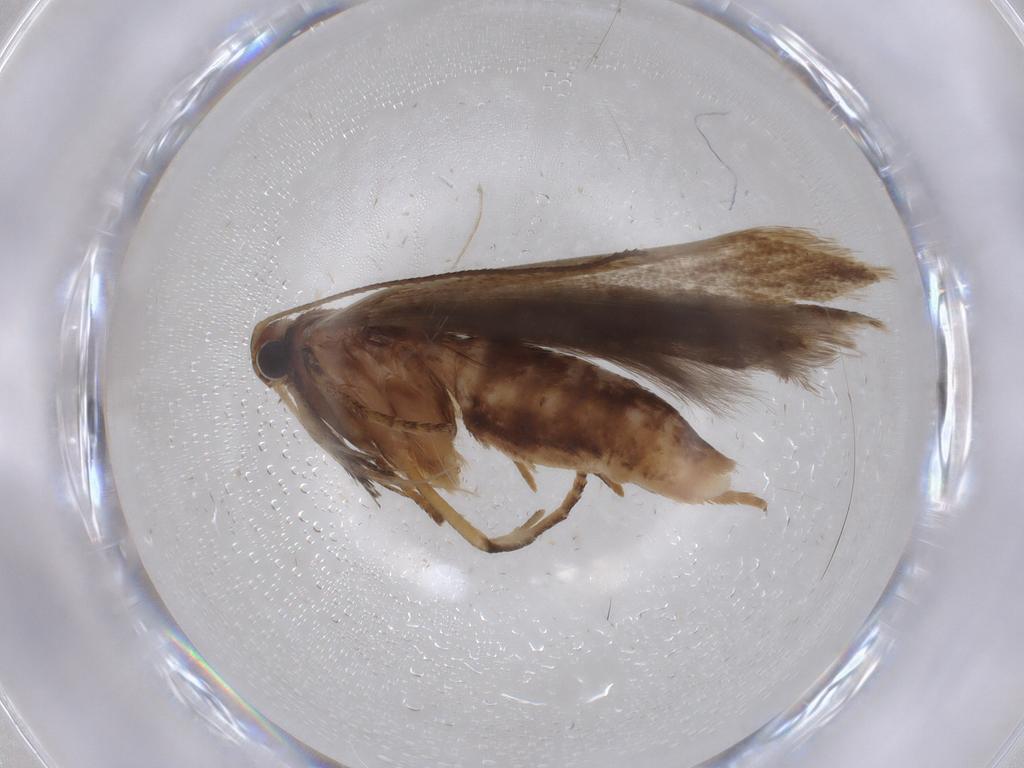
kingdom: Animalia
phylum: Arthropoda
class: Insecta
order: Lepidoptera
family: Gelechiidae
